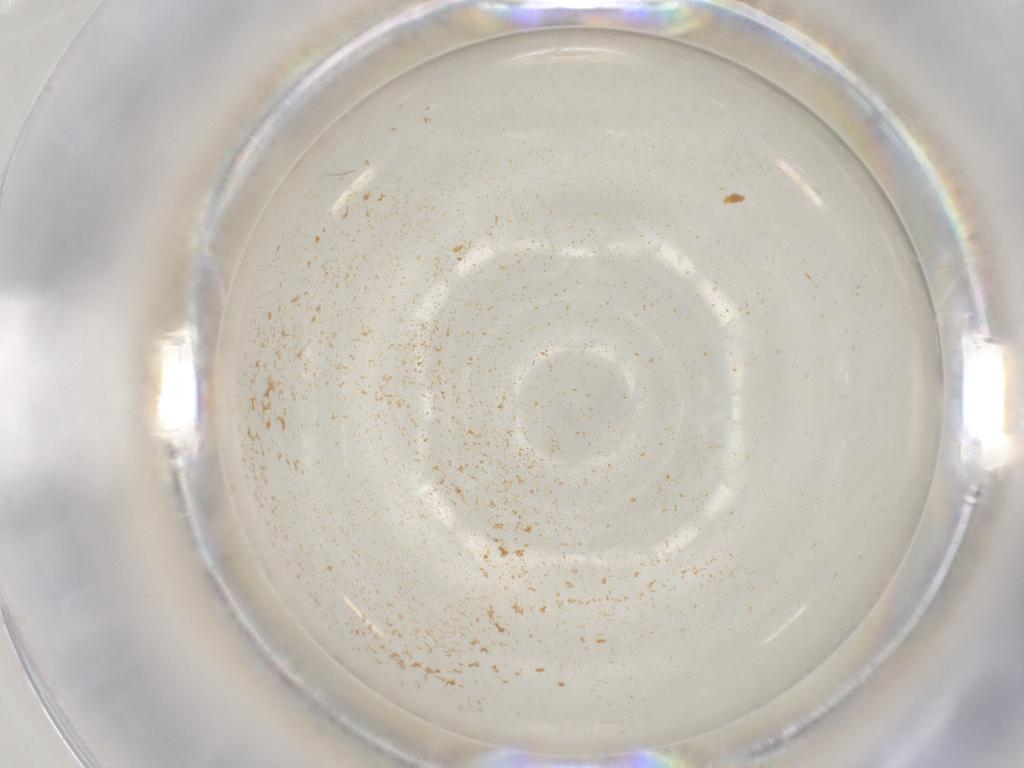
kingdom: Animalia
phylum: Arthropoda
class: Insecta
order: Hemiptera
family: Aleyrodidae
